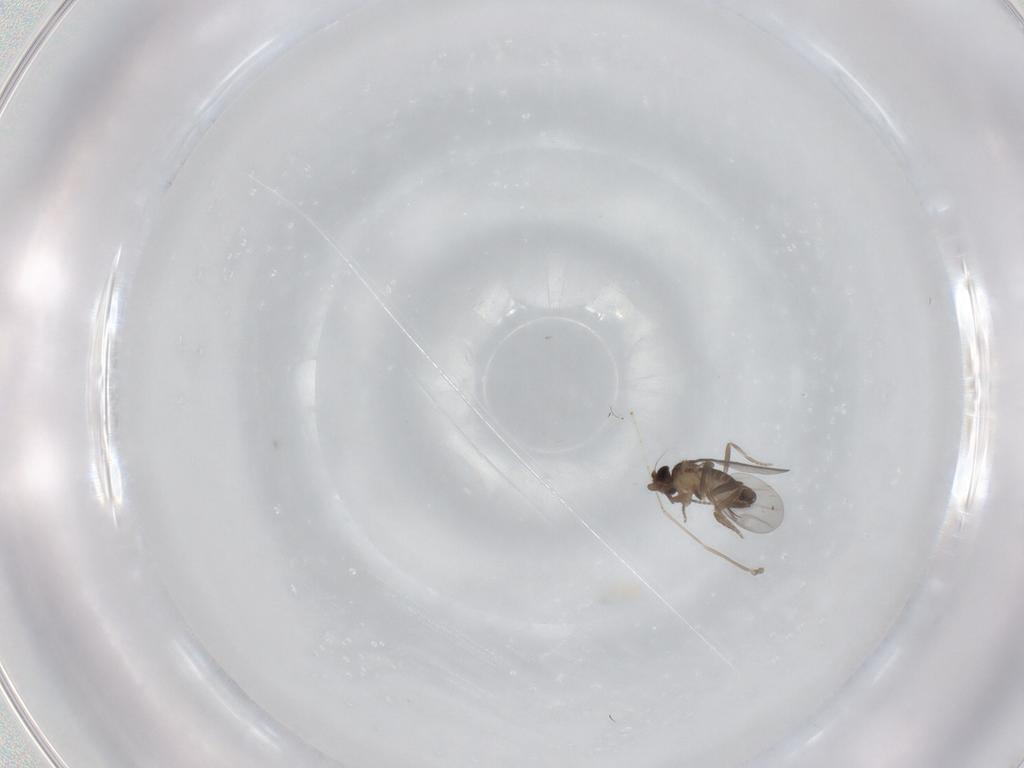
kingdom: Animalia
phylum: Arthropoda
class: Insecta
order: Diptera
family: Cecidomyiidae
